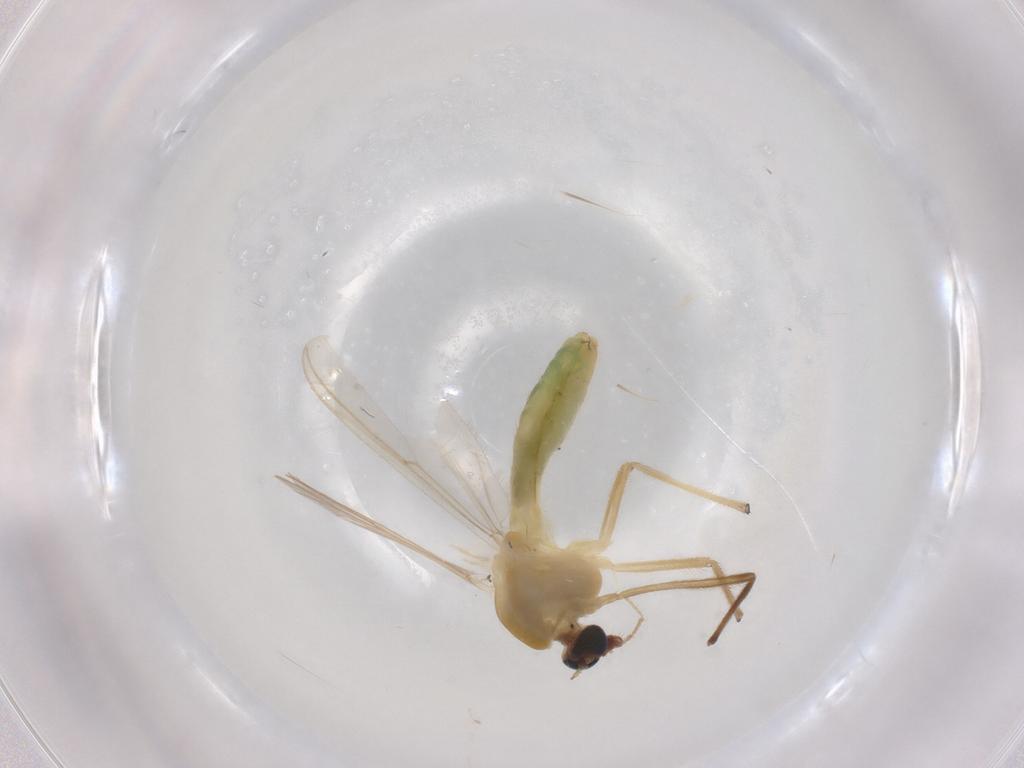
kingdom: Animalia
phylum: Arthropoda
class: Insecta
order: Diptera
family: Chironomidae
